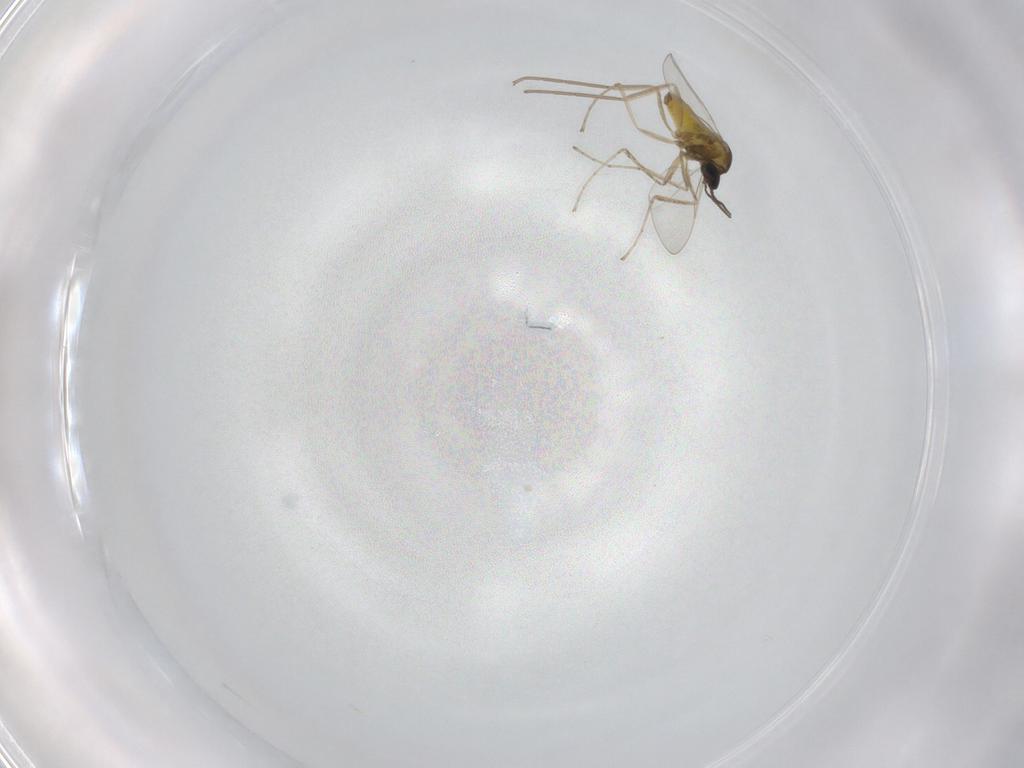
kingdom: Animalia
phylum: Arthropoda
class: Insecta
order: Diptera
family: Cecidomyiidae
